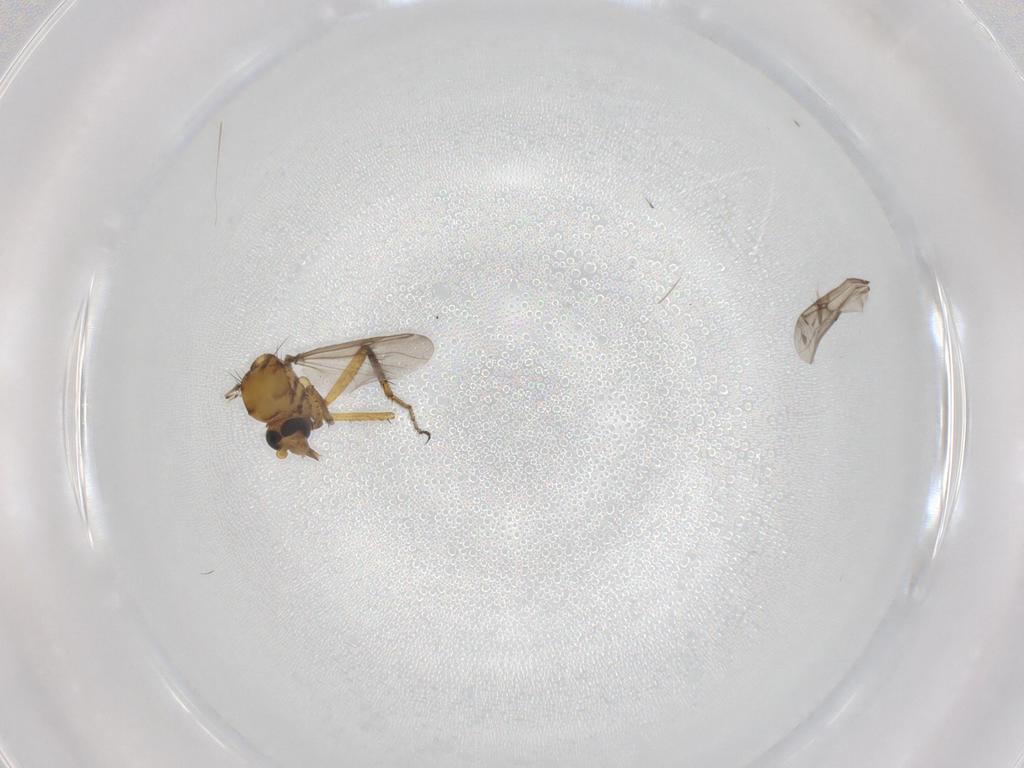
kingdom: Animalia
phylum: Arthropoda
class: Insecta
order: Diptera
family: Ceratopogonidae
